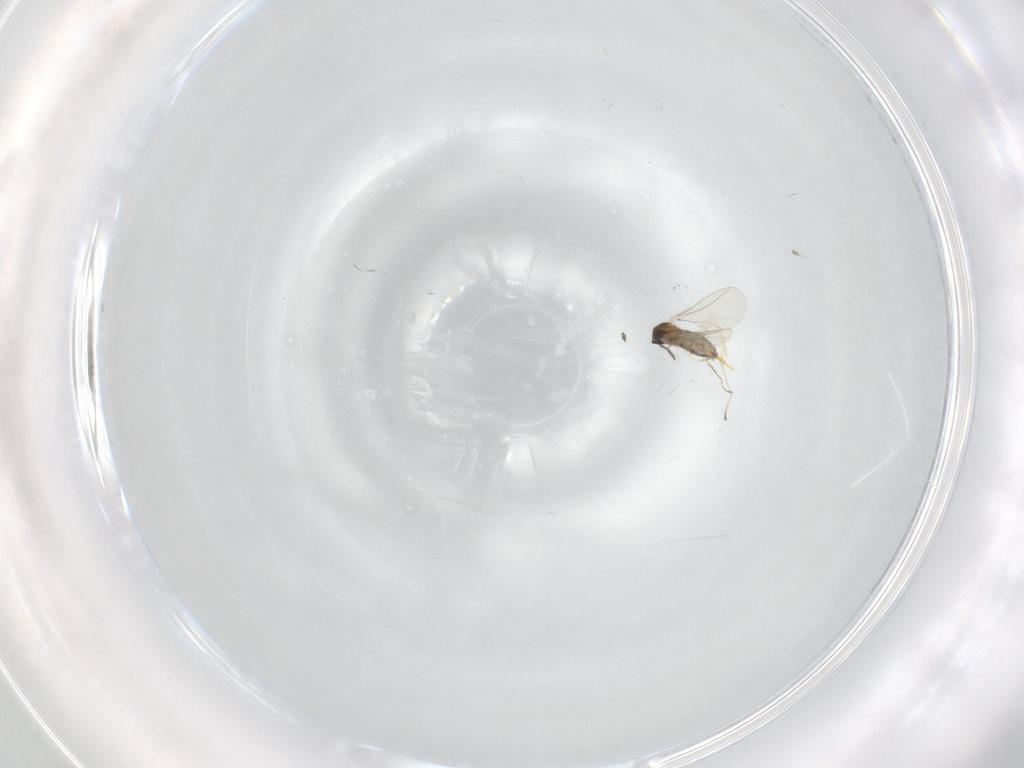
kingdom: Animalia
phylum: Arthropoda
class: Insecta
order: Diptera
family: Cecidomyiidae
